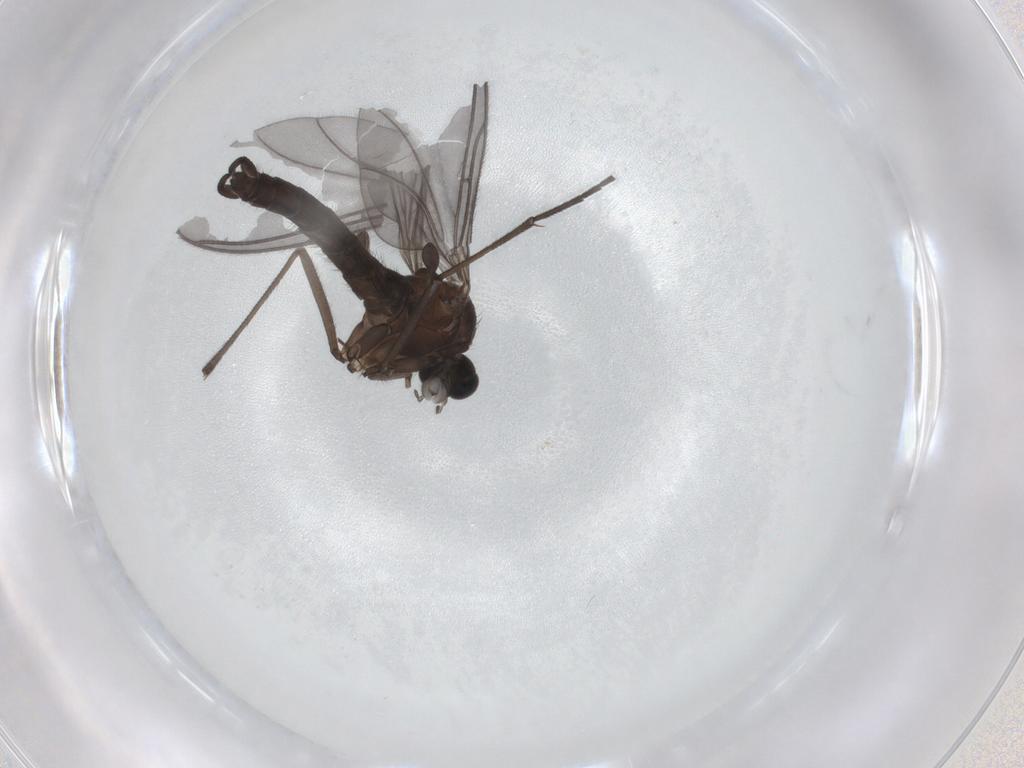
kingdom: Animalia
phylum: Arthropoda
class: Insecta
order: Diptera
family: Sciaridae
